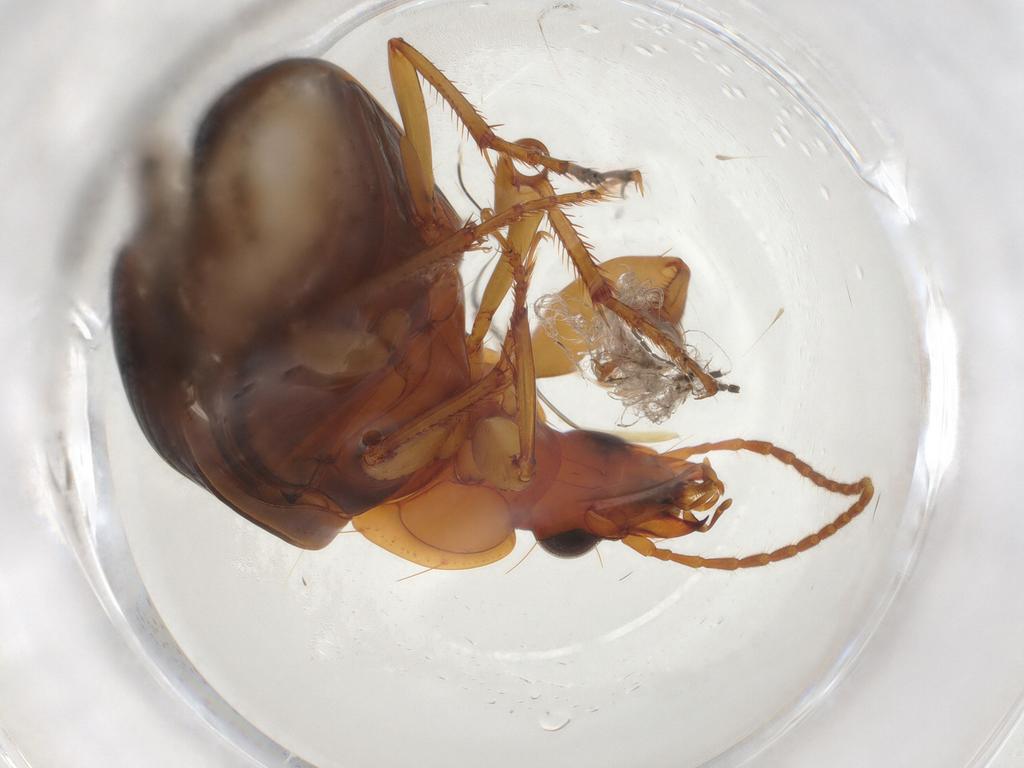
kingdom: Animalia
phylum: Arthropoda
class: Insecta
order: Coleoptera
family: Carabidae
